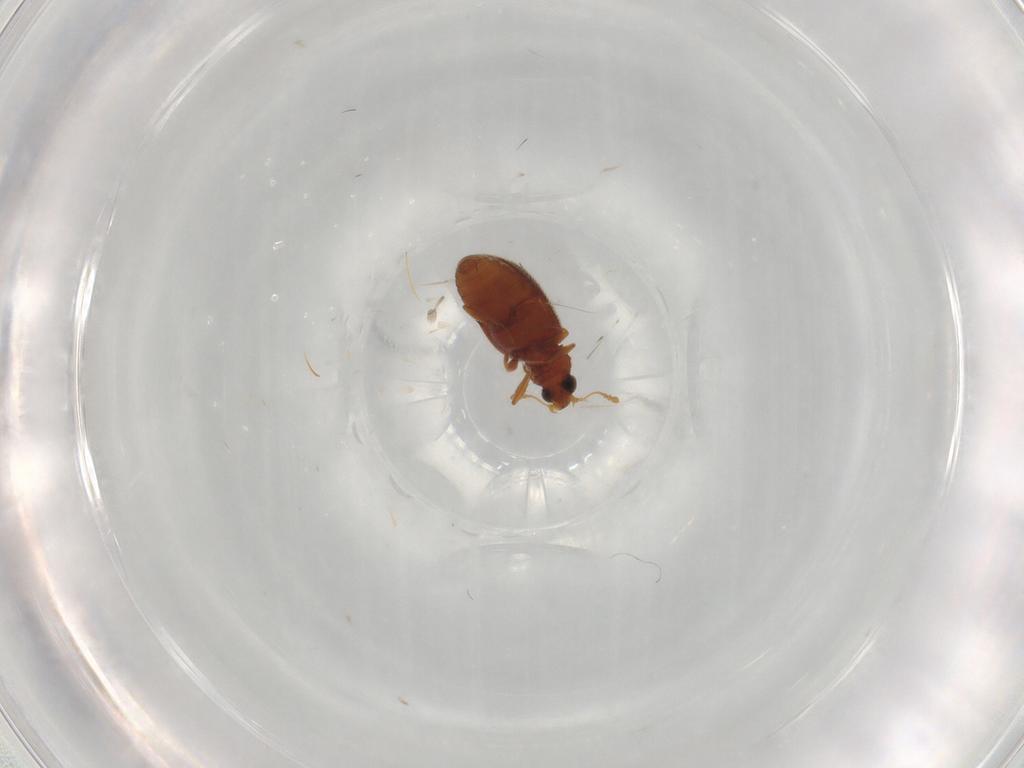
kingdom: Animalia
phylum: Arthropoda
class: Insecta
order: Coleoptera
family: Latridiidae
